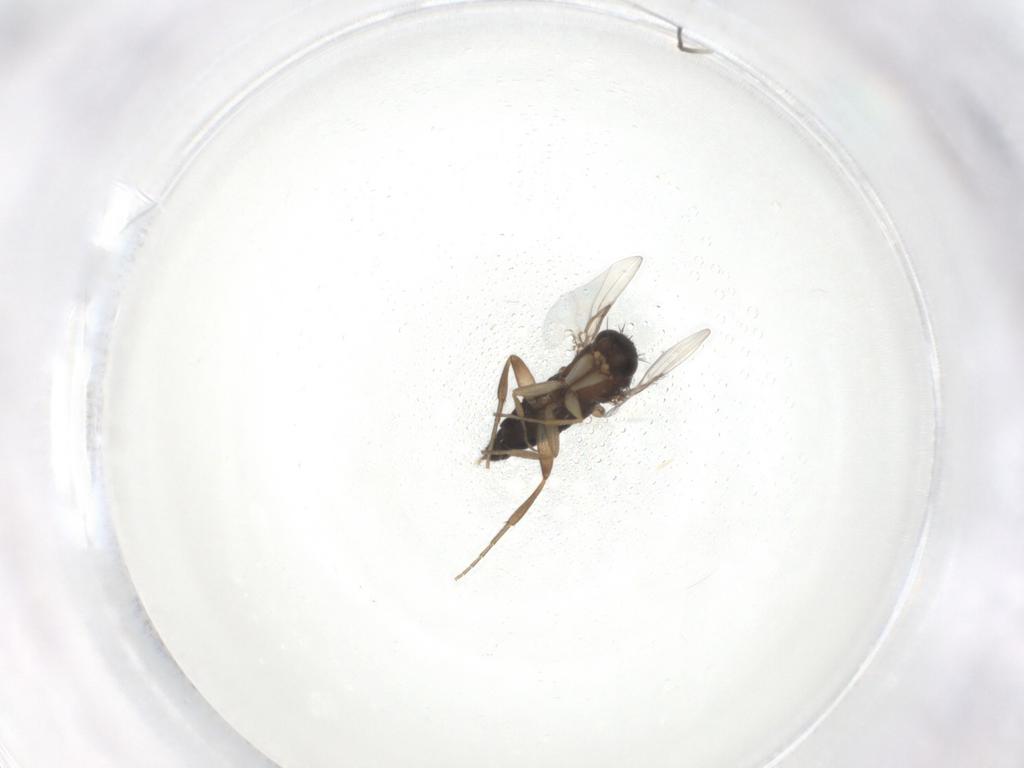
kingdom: Animalia
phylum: Arthropoda
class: Insecta
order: Diptera
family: Phoridae
